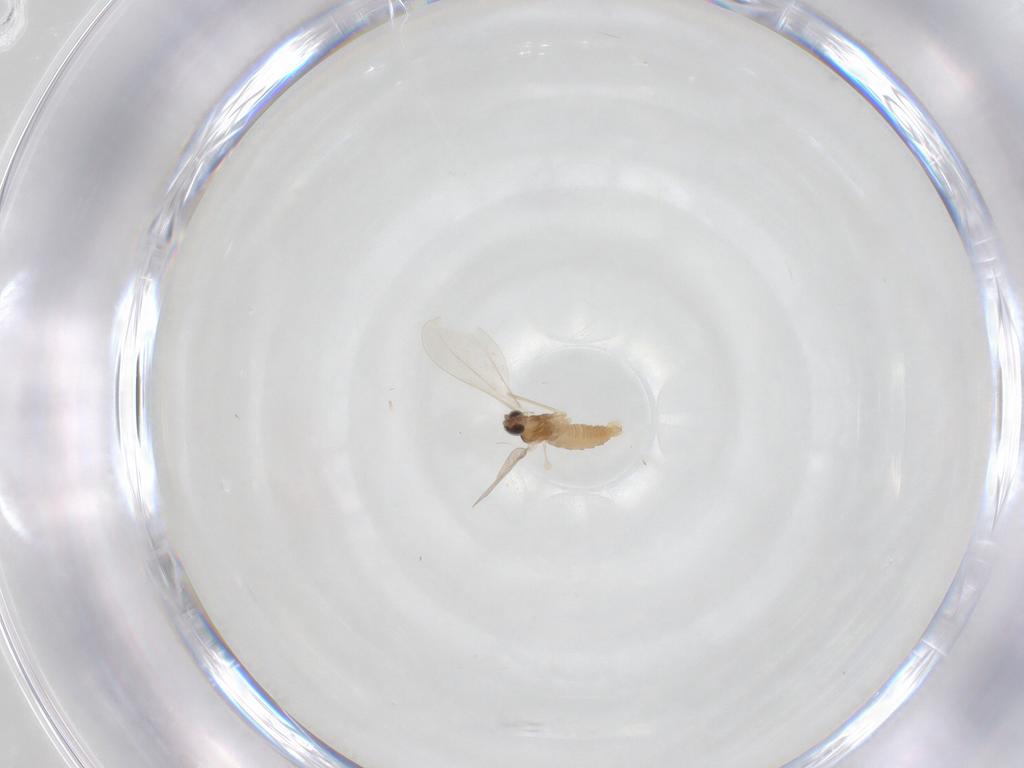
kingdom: Animalia
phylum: Arthropoda
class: Insecta
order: Diptera
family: Cecidomyiidae
